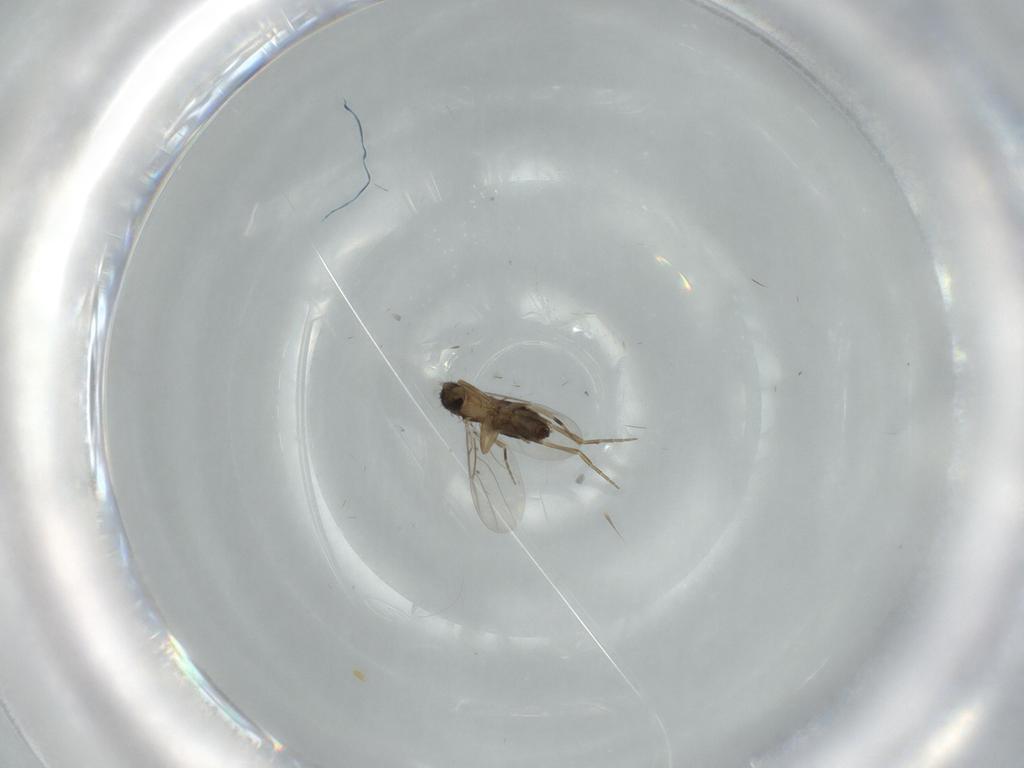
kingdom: Animalia
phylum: Arthropoda
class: Insecta
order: Diptera
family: Phoridae
